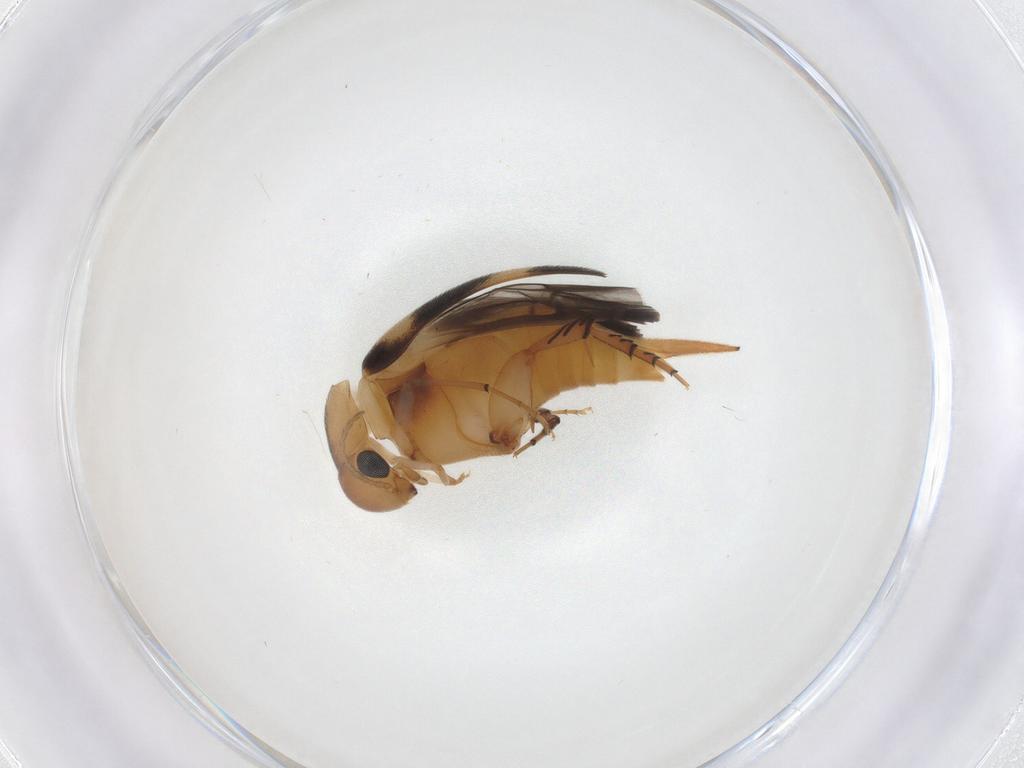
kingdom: Animalia
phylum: Arthropoda
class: Insecta
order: Coleoptera
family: Mordellidae
